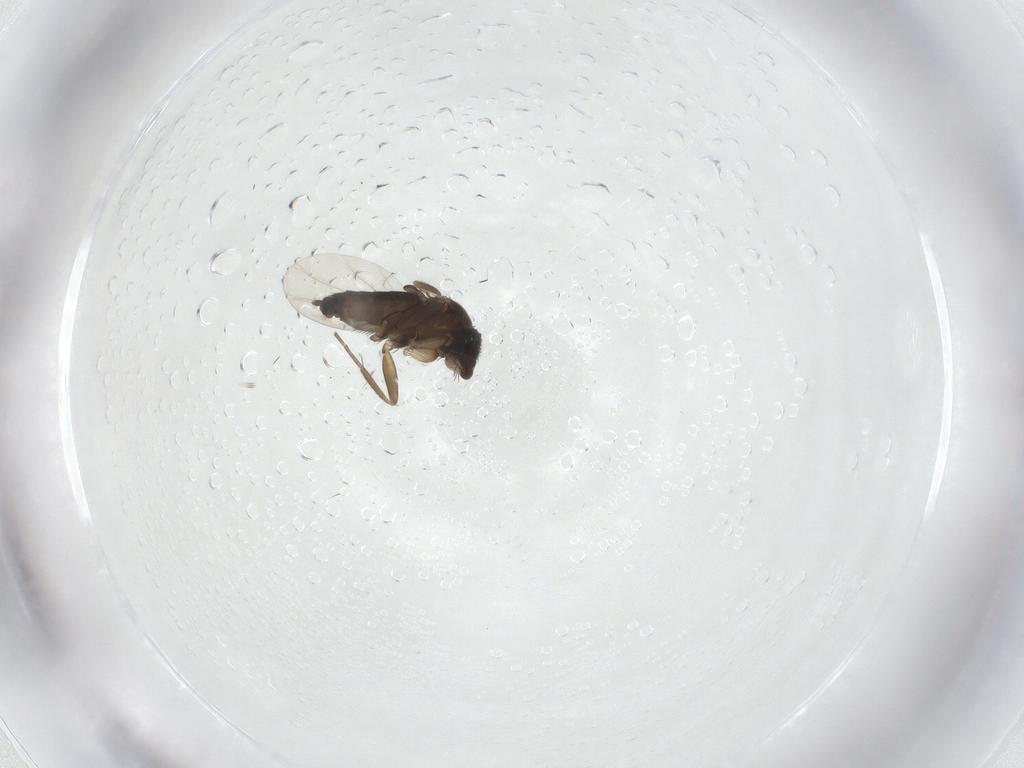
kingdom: Animalia
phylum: Arthropoda
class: Insecta
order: Diptera
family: Phoridae
